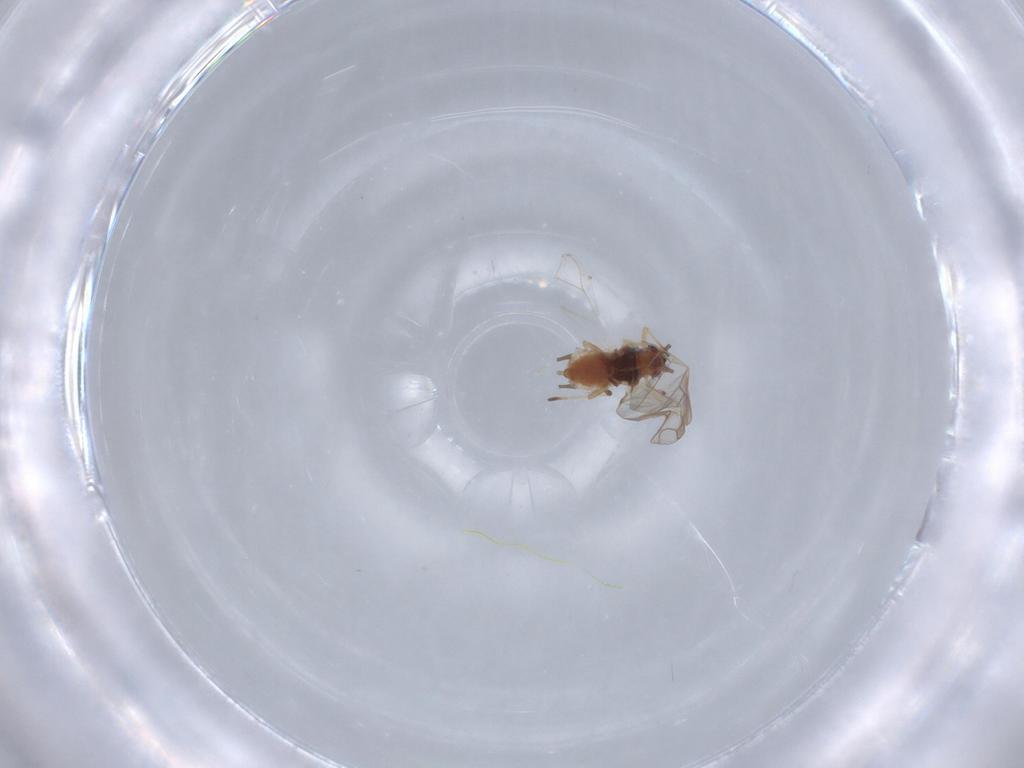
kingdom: Animalia
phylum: Arthropoda
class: Insecta
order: Hemiptera
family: Aphididae
